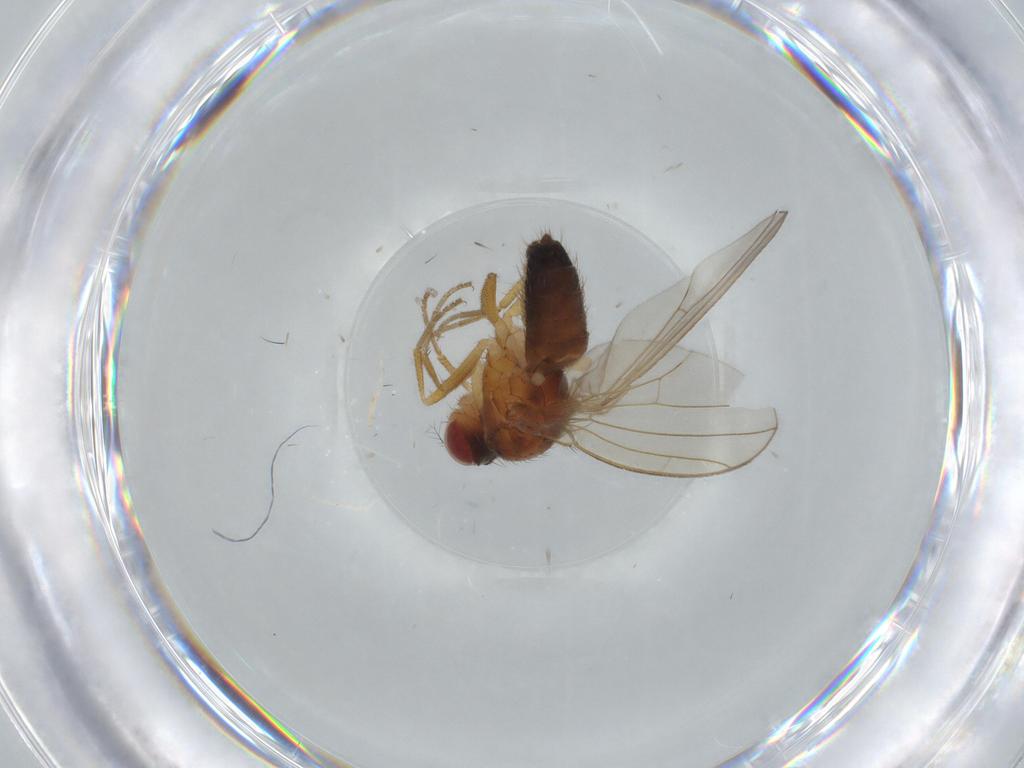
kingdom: Animalia
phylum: Arthropoda
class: Insecta
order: Diptera
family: Drosophilidae
